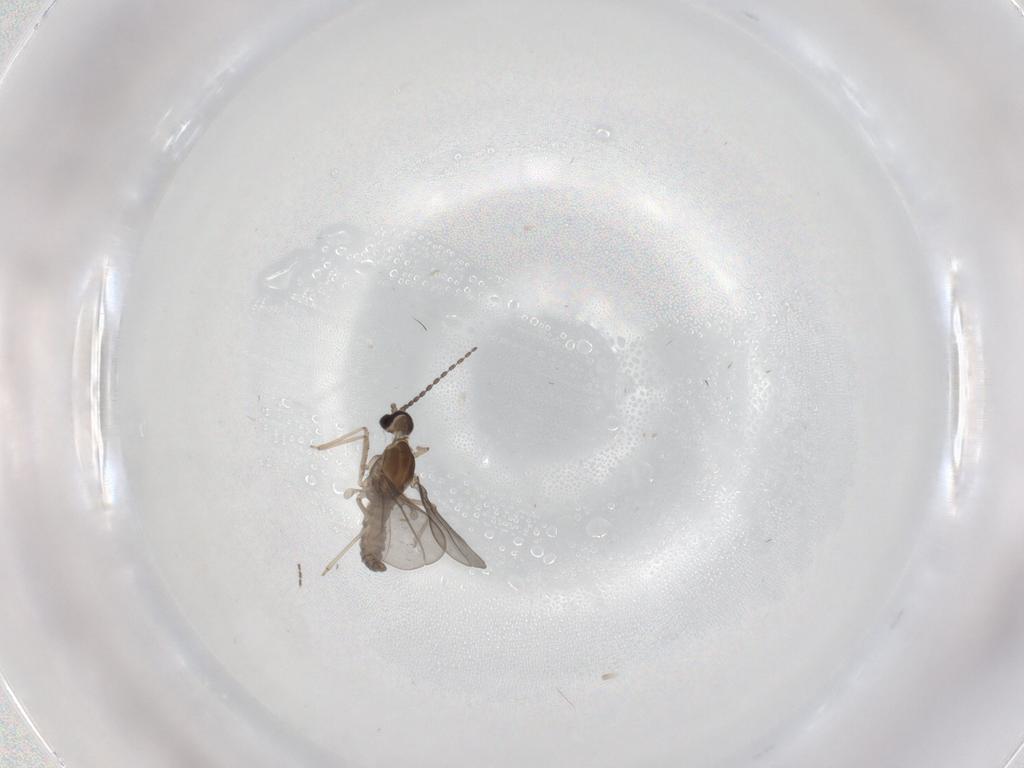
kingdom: Animalia
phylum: Arthropoda
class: Insecta
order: Diptera
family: Cecidomyiidae
